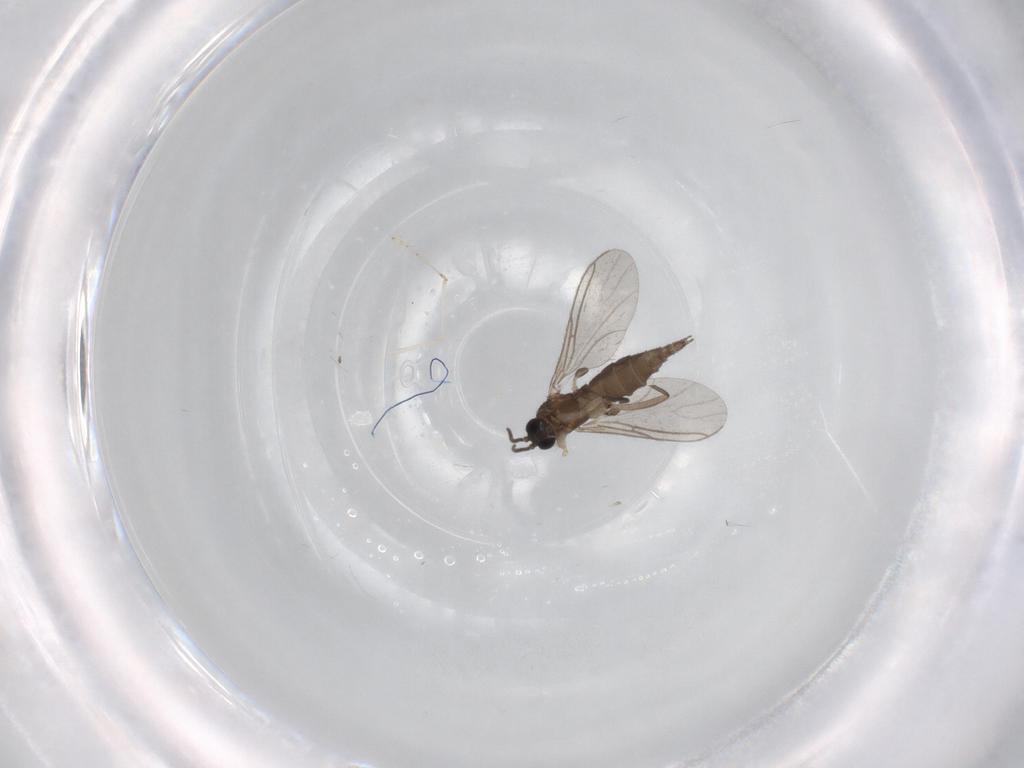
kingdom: Animalia
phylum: Arthropoda
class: Insecta
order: Diptera
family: Sciaridae
